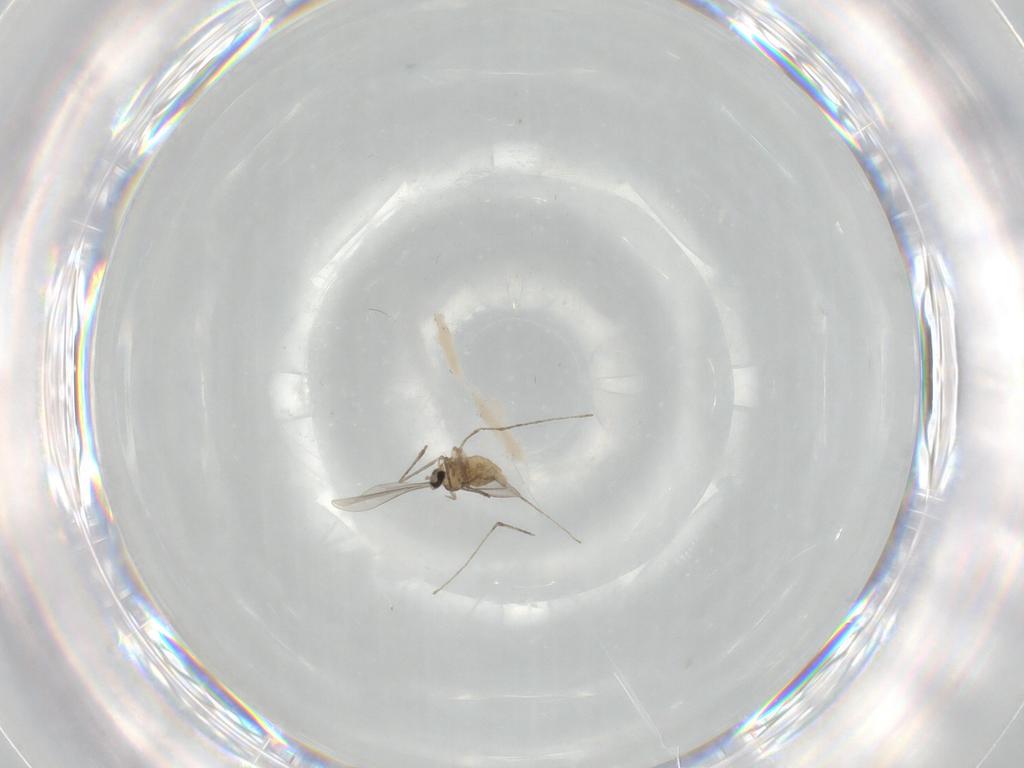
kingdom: Animalia
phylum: Arthropoda
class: Insecta
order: Diptera
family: Cecidomyiidae
